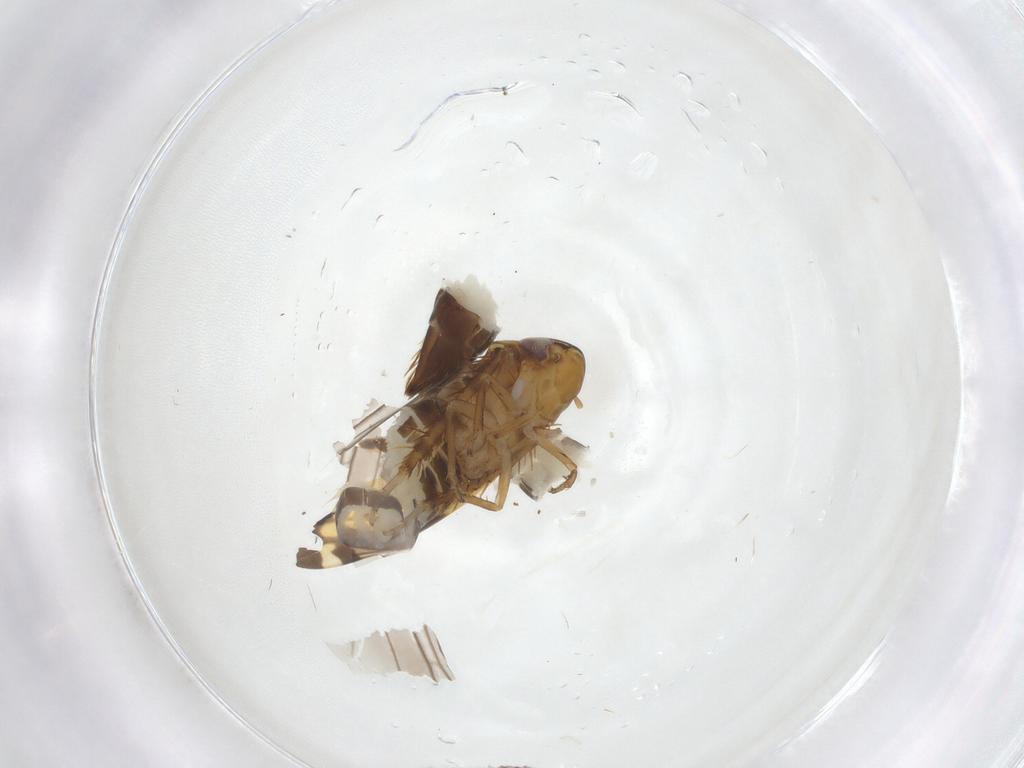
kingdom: Animalia
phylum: Arthropoda
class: Insecta
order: Hemiptera
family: Cicadellidae
